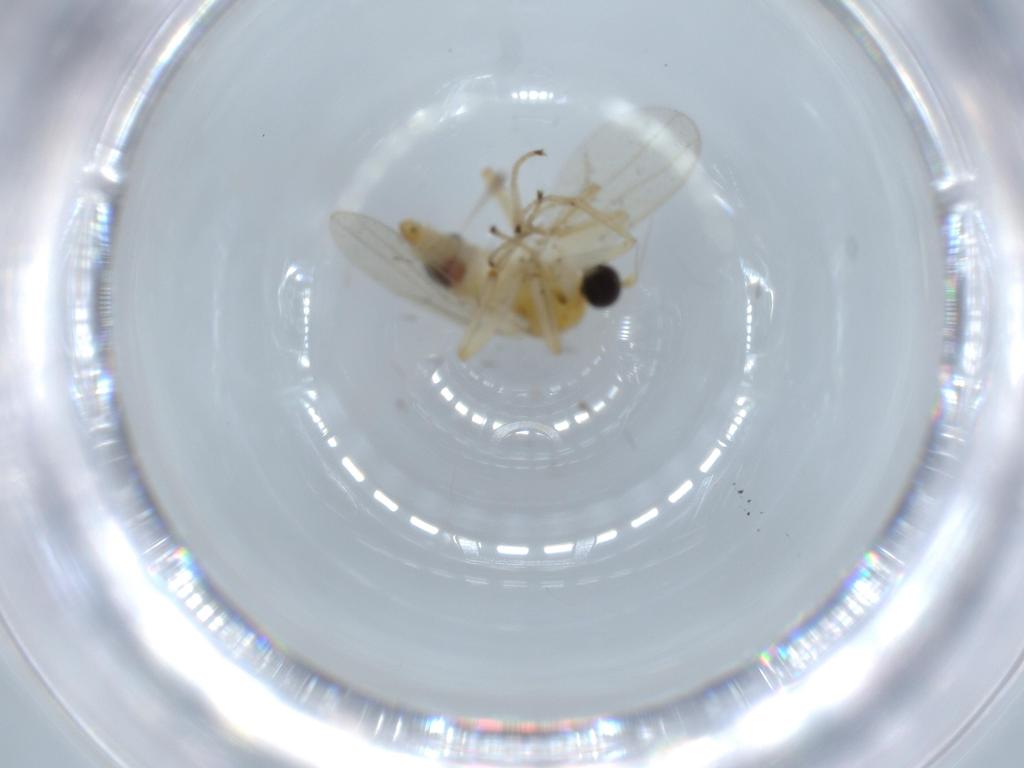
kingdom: Animalia
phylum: Arthropoda
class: Insecta
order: Diptera
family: Hybotidae
